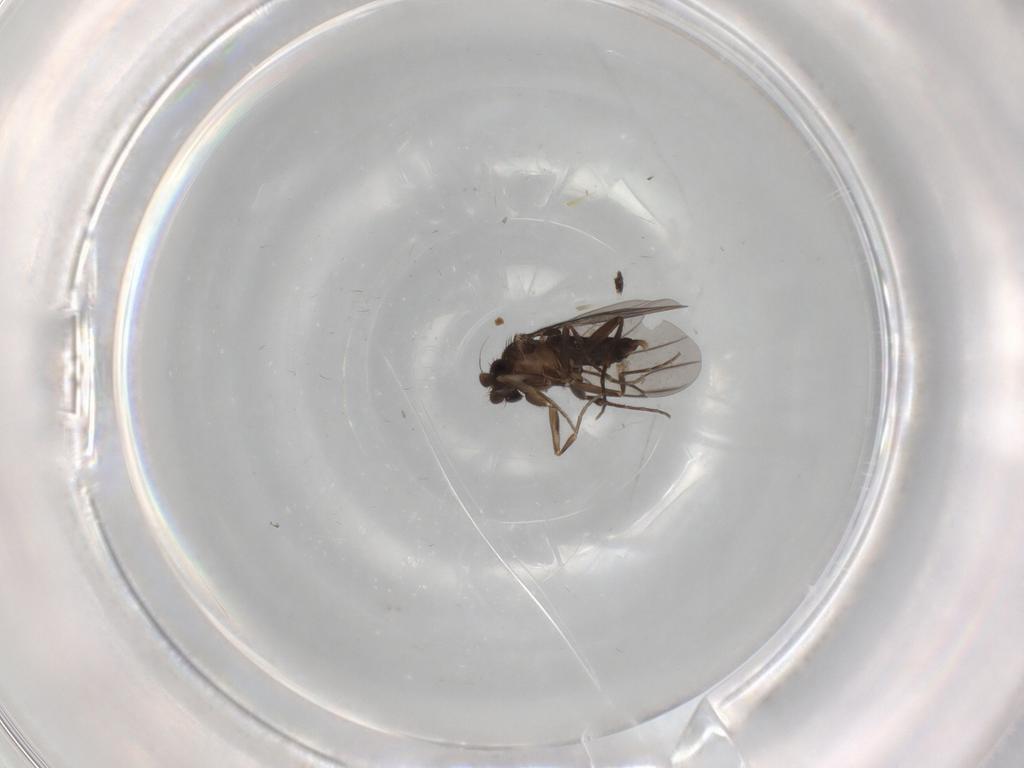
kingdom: Animalia
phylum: Arthropoda
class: Insecta
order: Diptera
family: Phoridae
